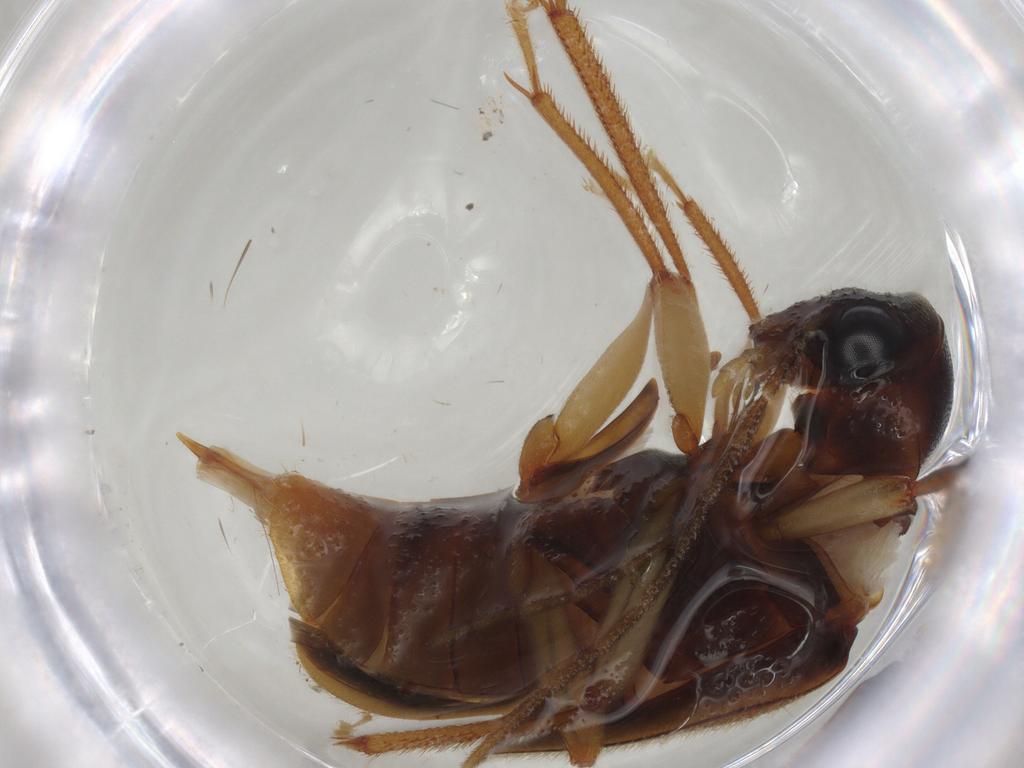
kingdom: Animalia
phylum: Arthropoda
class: Insecta
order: Coleoptera
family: Ptilodactylidae
